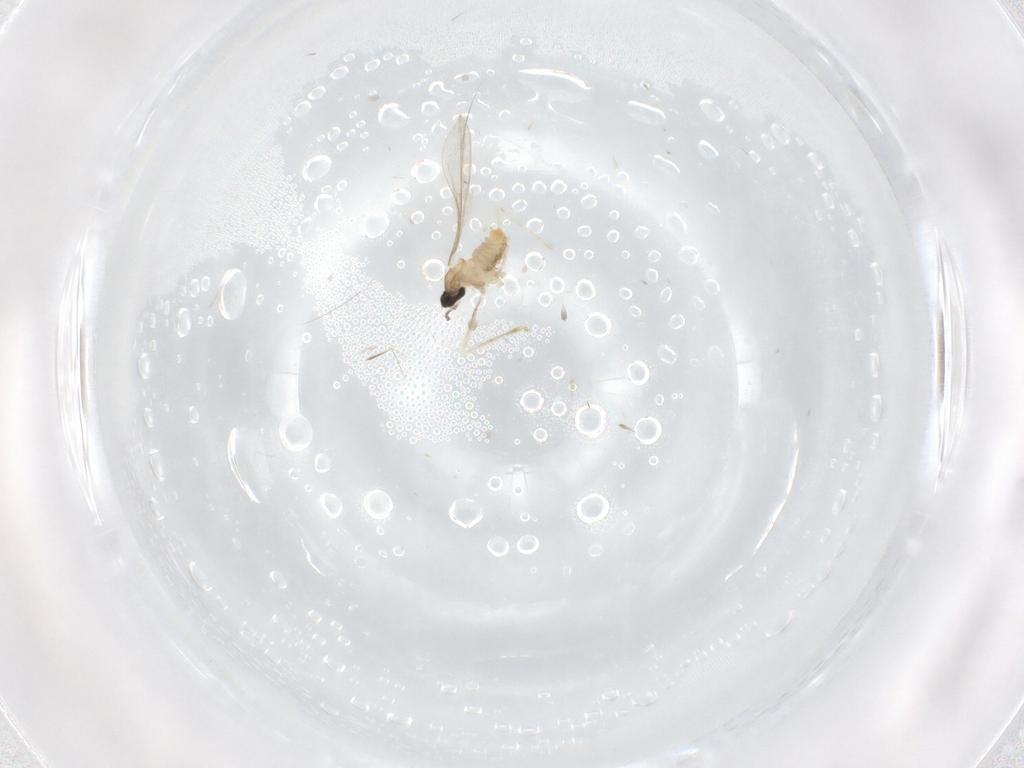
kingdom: Animalia
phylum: Arthropoda
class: Insecta
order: Diptera
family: Cecidomyiidae
